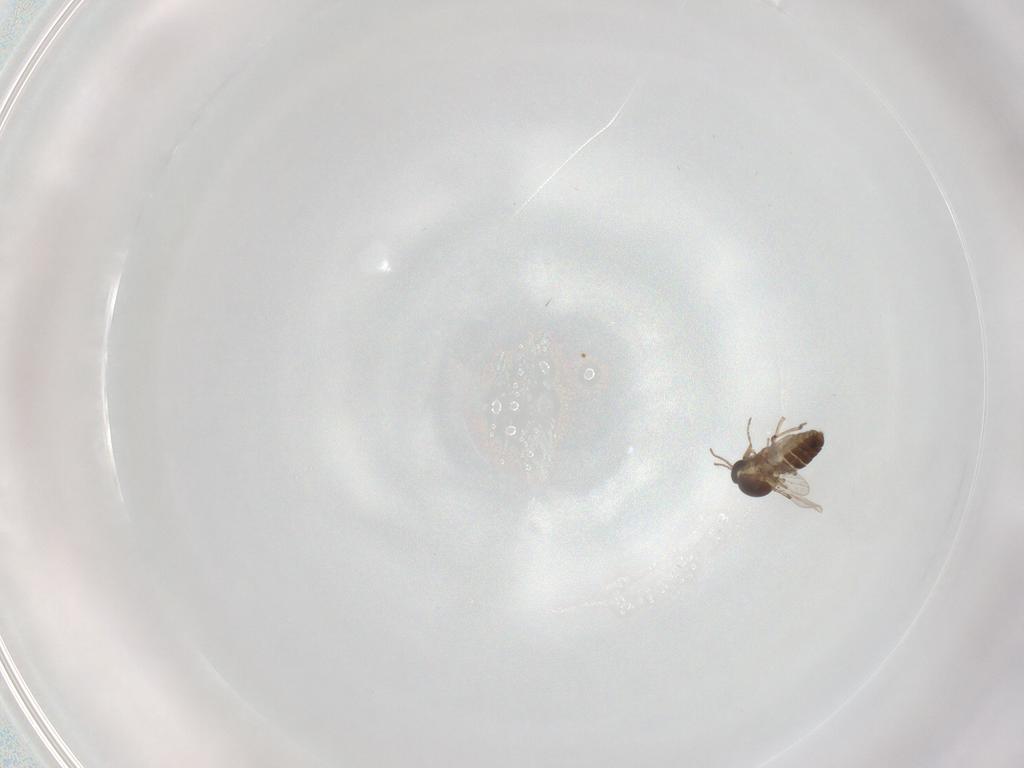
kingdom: Animalia
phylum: Arthropoda
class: Insecta
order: Diptera
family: Ceratopogonidae
